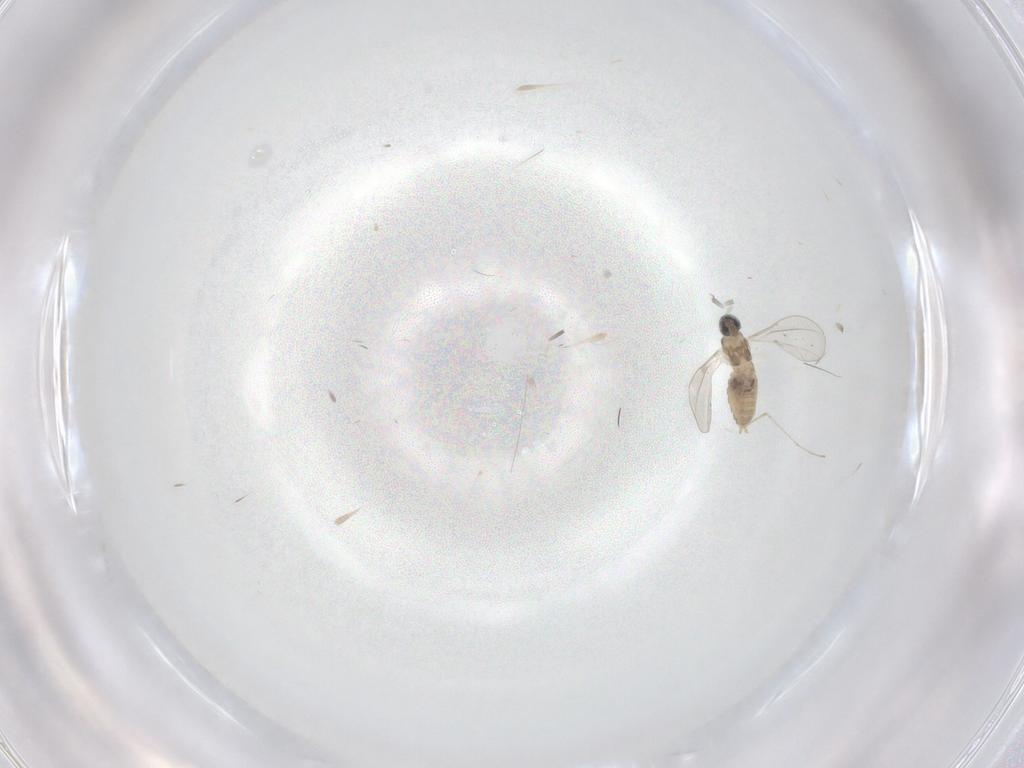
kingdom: Animalia
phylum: Arthropoda
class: Insecta
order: Diptera
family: Cecidomyiidae
